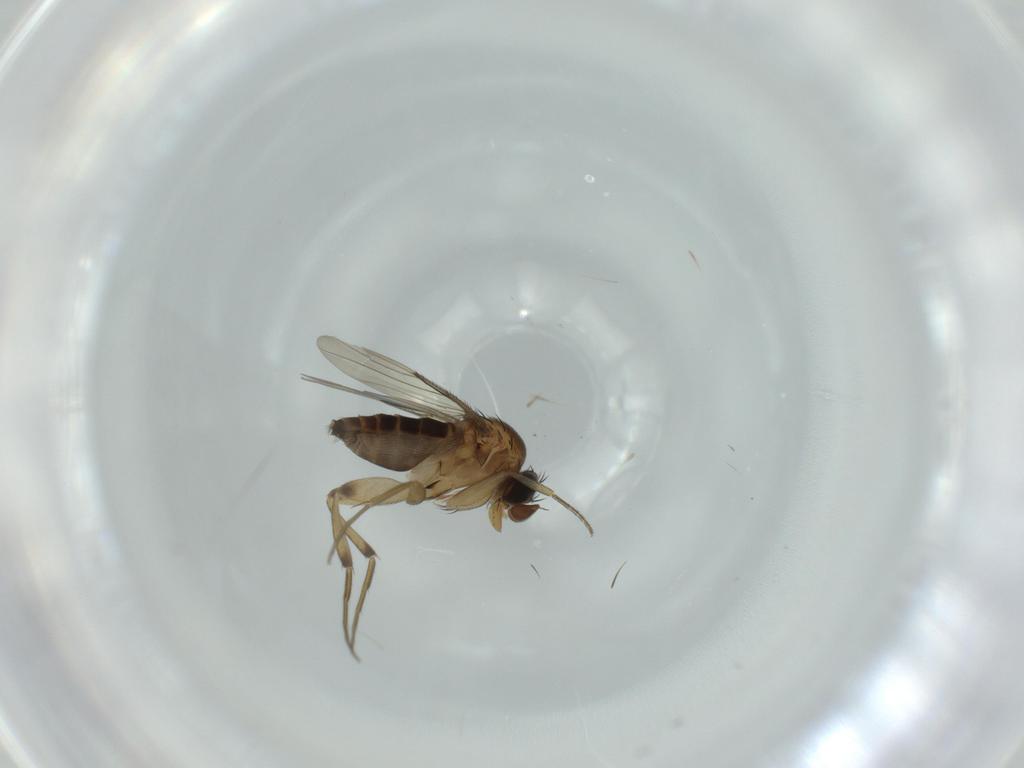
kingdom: Animalia
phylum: Arthropoda
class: Insecta
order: Diptera
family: Phoridae
